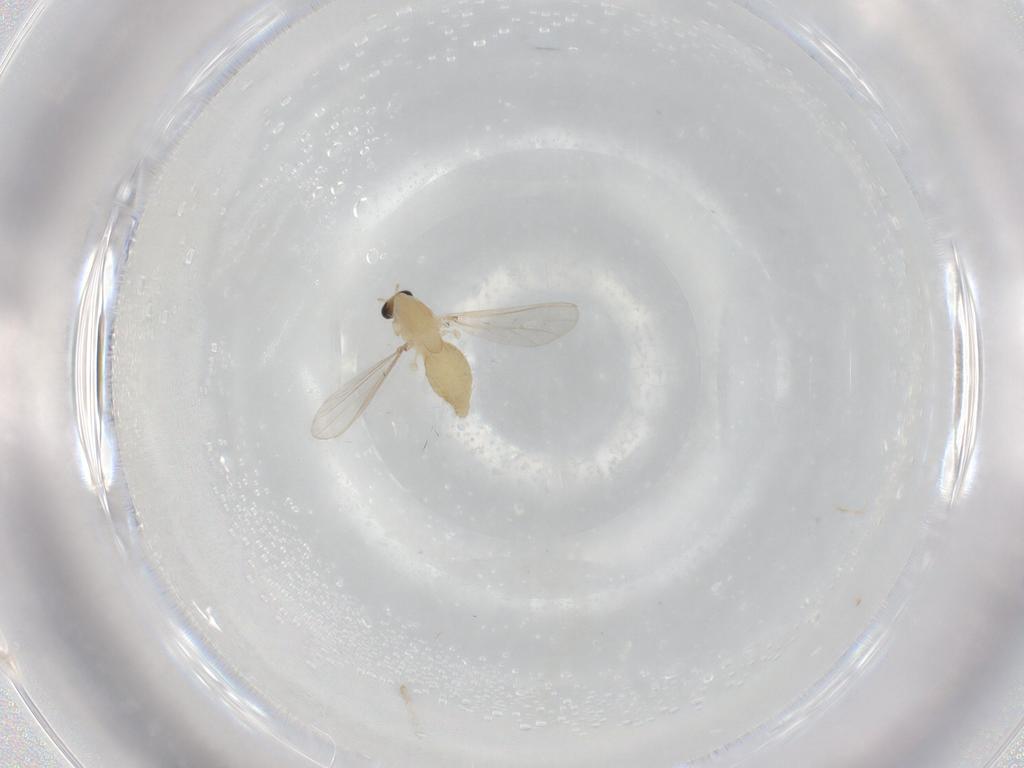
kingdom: Animalia
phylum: Arthropoda
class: Insecta
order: Diptera
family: Chironomidae
